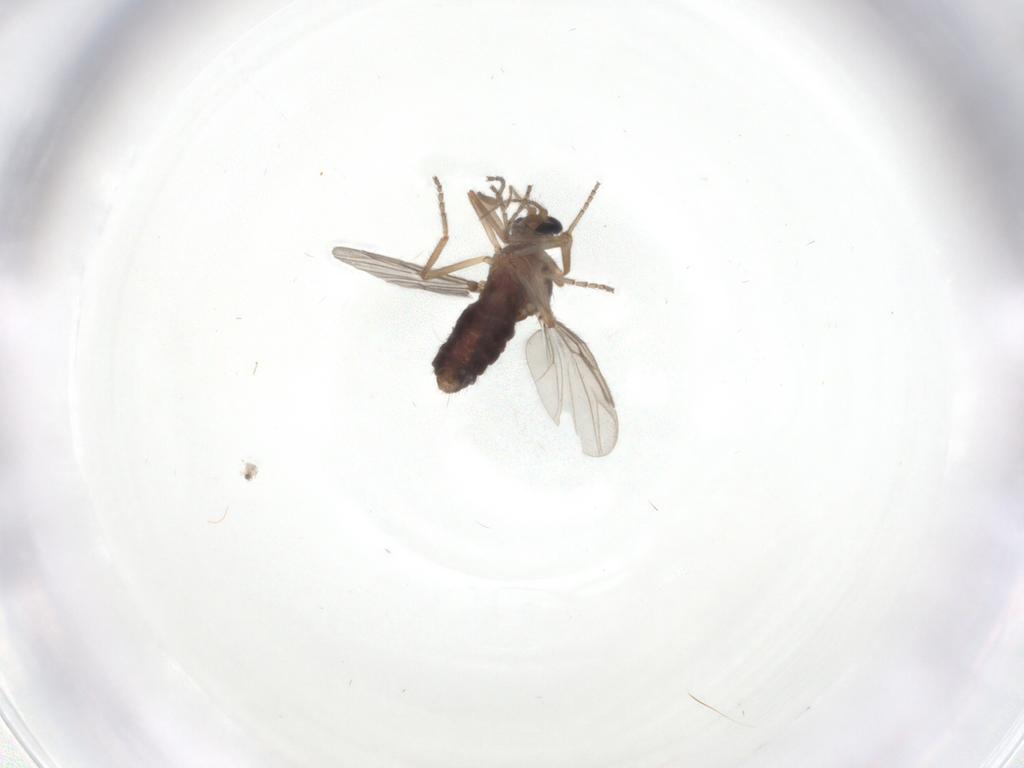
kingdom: Animalia
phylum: Arthropoda
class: Insecta
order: Diptera
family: Ceratopogonidae
